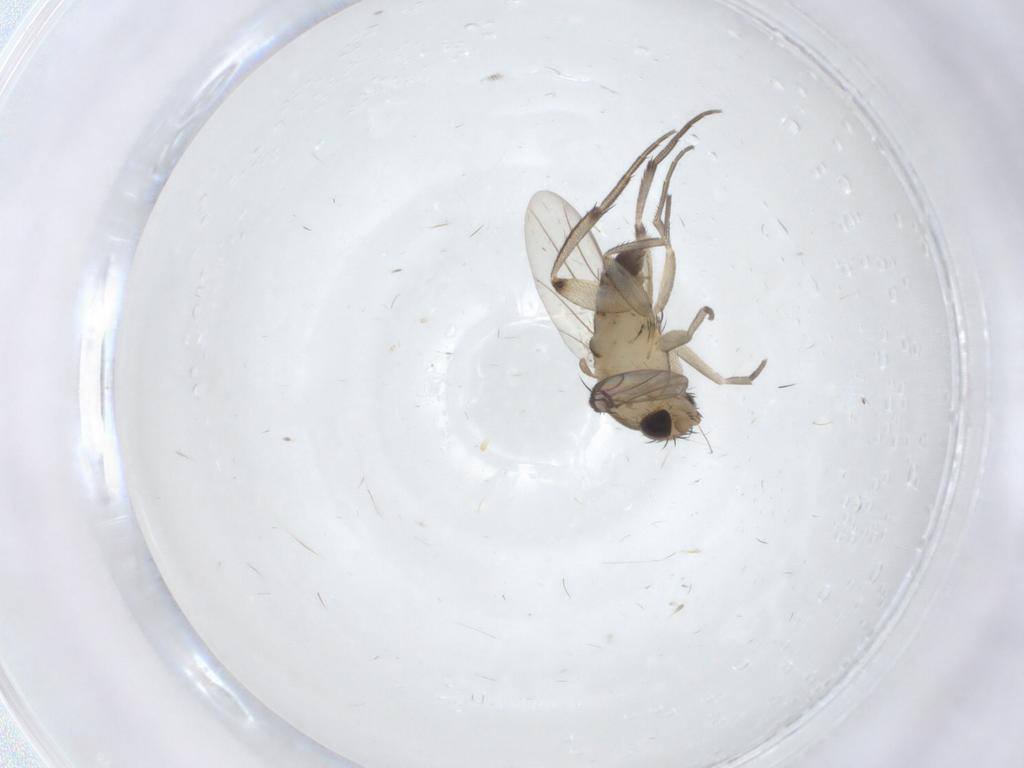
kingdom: Animalia
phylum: Arthropoda
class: Insecta
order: Diptera
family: Phoridae
